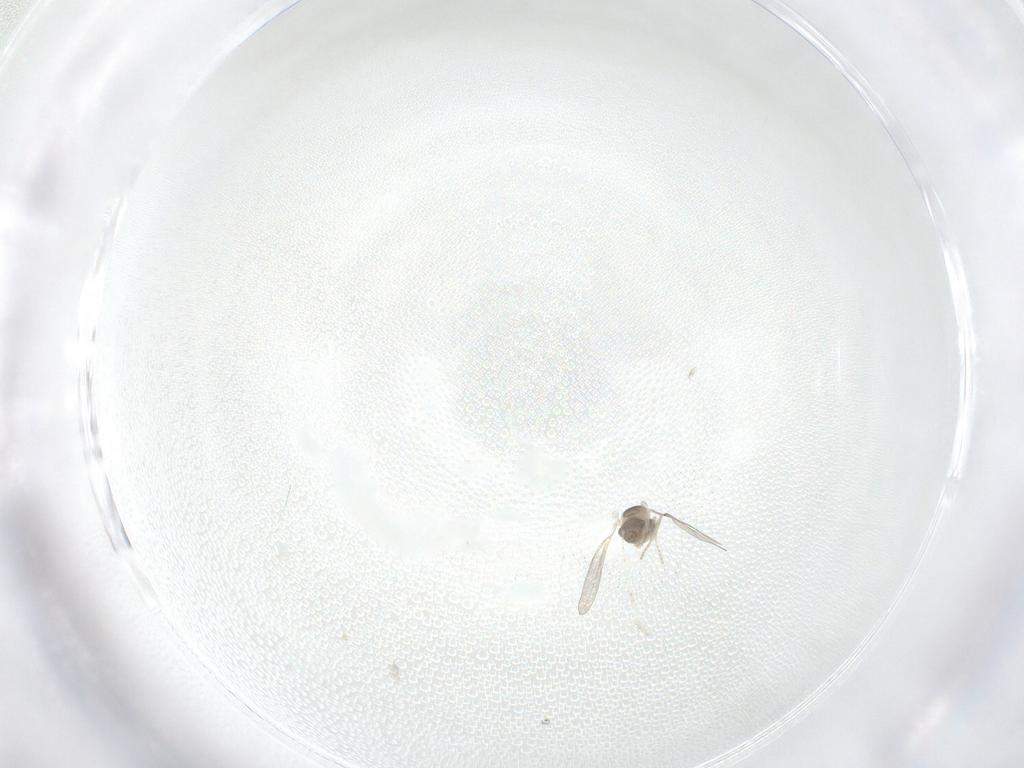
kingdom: Animalia
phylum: Arthropoda
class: Insecta
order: Diptera
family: Cecidomyiidae
